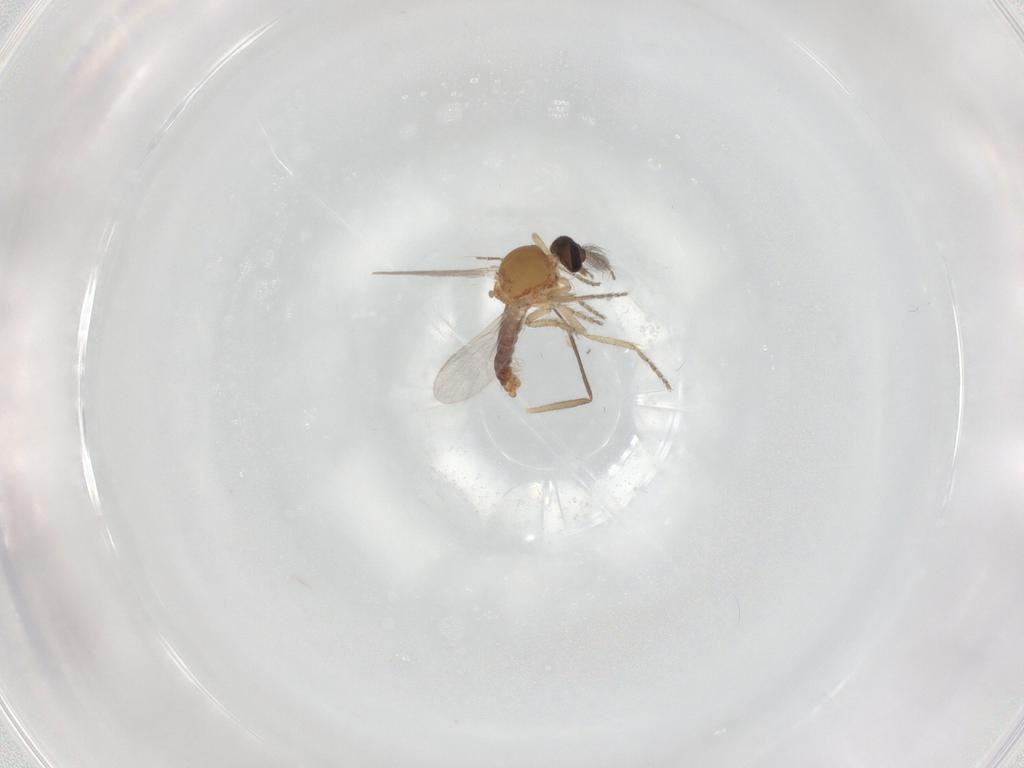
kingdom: Animalia
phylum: Arthropoda
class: Insecta
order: Diptera
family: Ceratopogonidae
